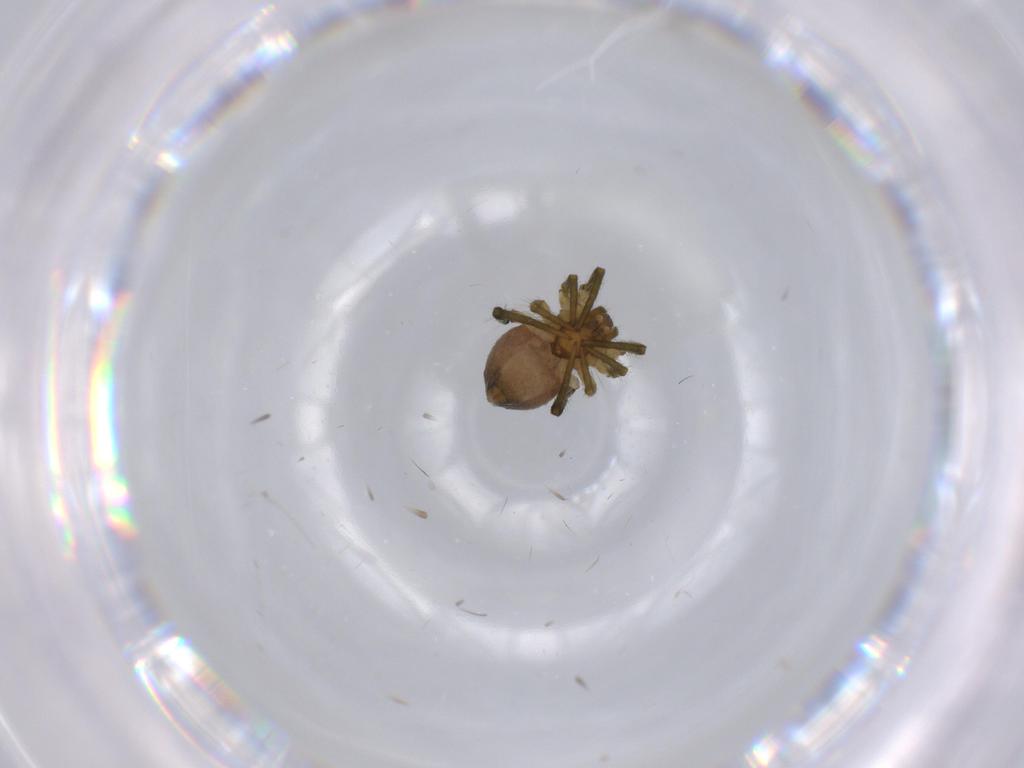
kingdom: Animalia
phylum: Arthropoda
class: Arachnida
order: Araneae
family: Theridiidae
